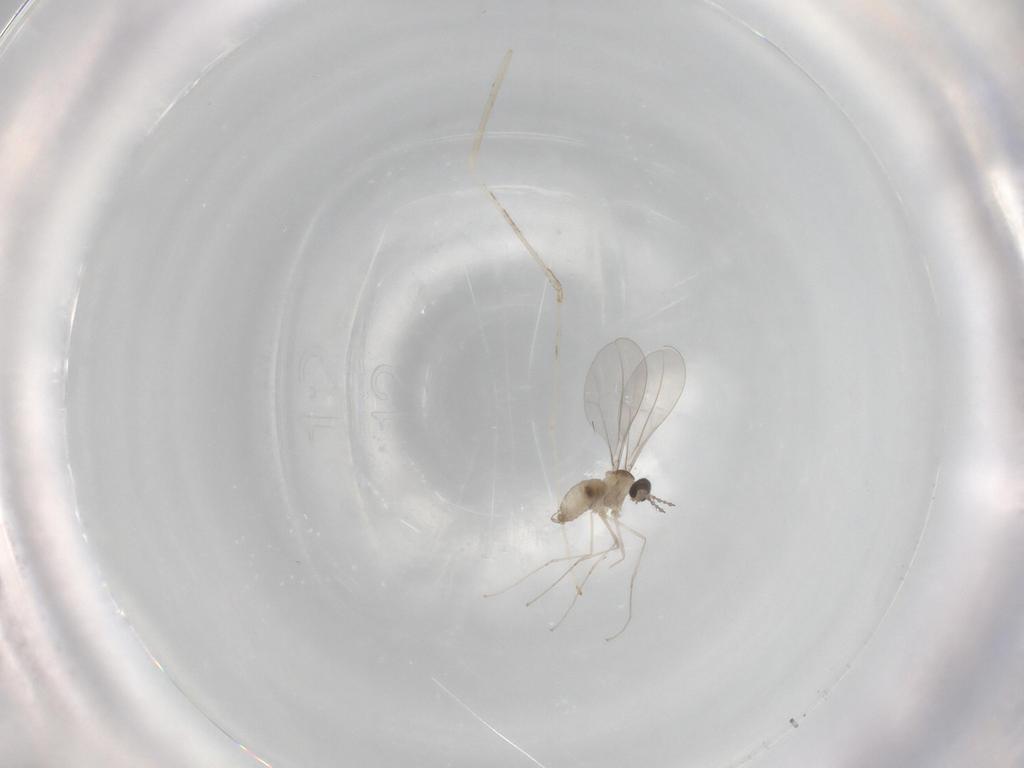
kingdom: Animalia
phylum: Arthropoda
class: Insecta
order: Diptera
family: Cecidomyiidae
